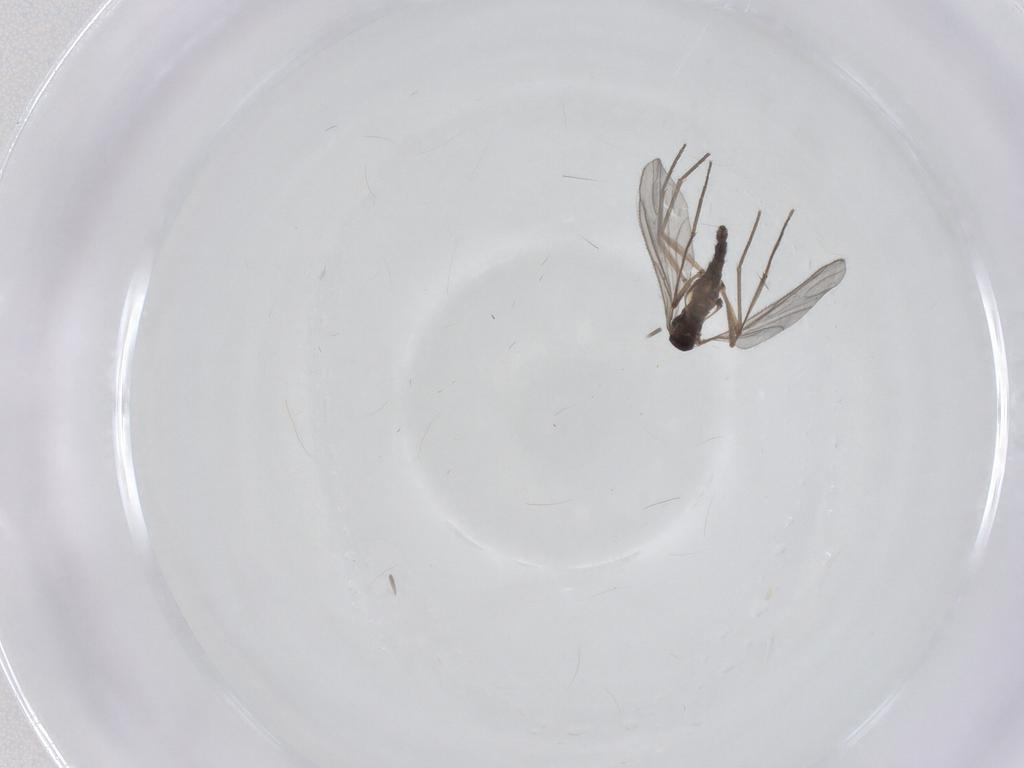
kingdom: Animalia
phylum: Arthropoda
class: Insecta
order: Diptera
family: Sciaridae
